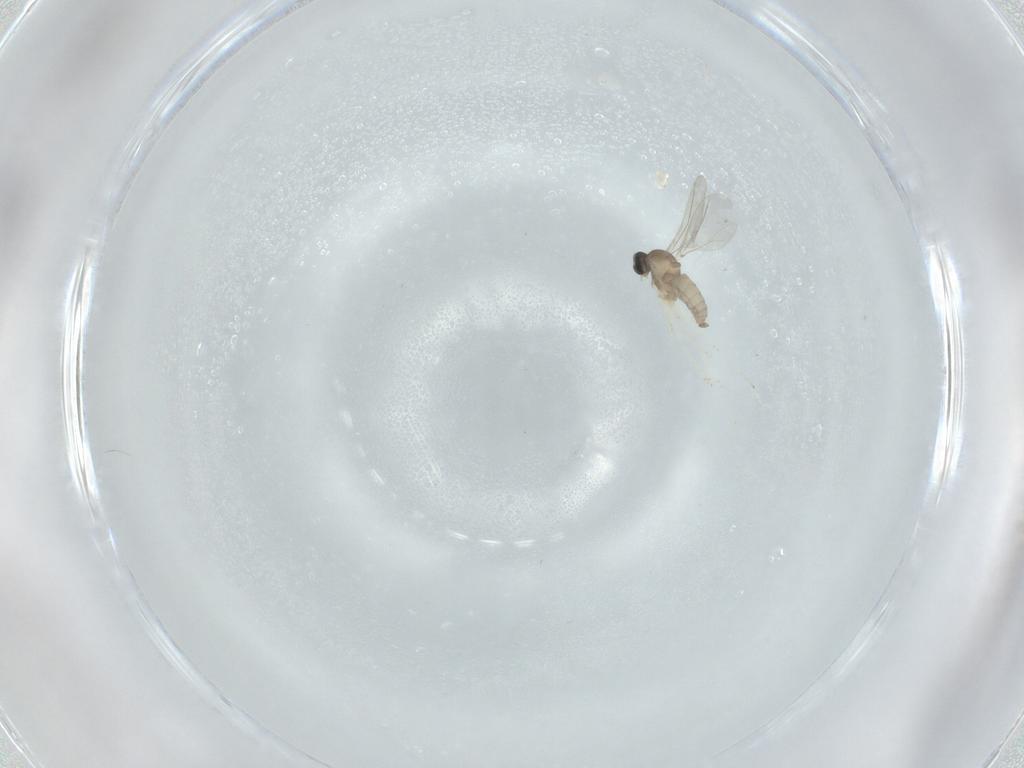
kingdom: Animalia
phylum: Arthropoda
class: Insecta
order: Diptera
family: Cecidomyiidae
